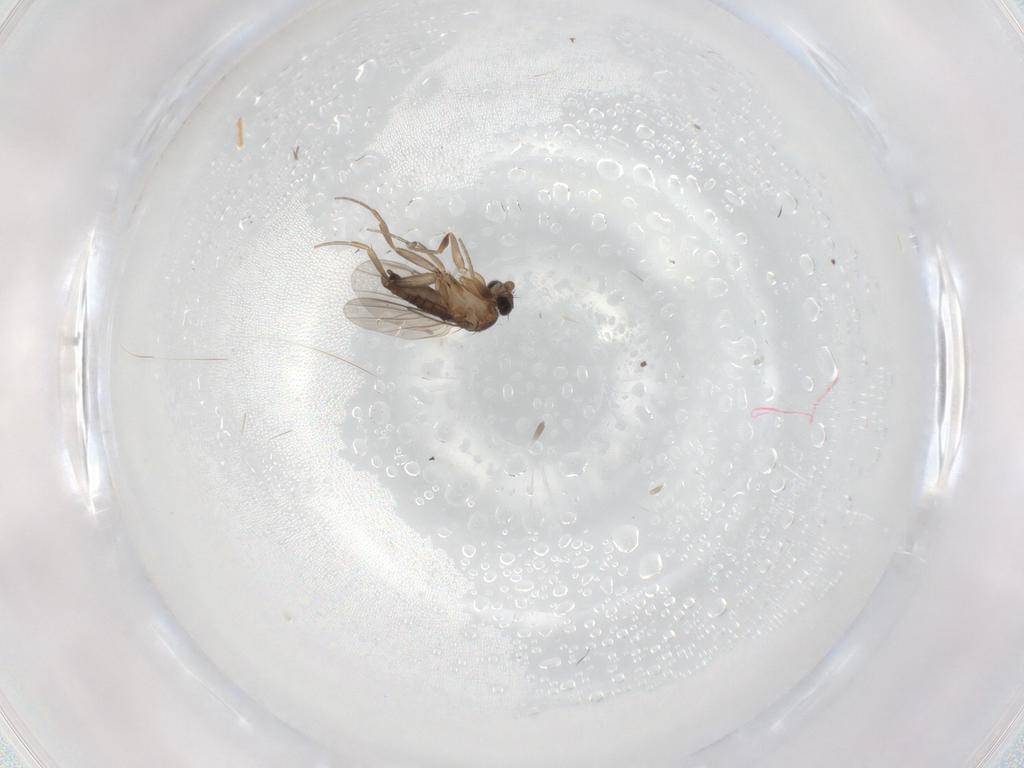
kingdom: Animalia
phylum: Arthropoda
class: Insecta
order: Diptera
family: Phoridae
